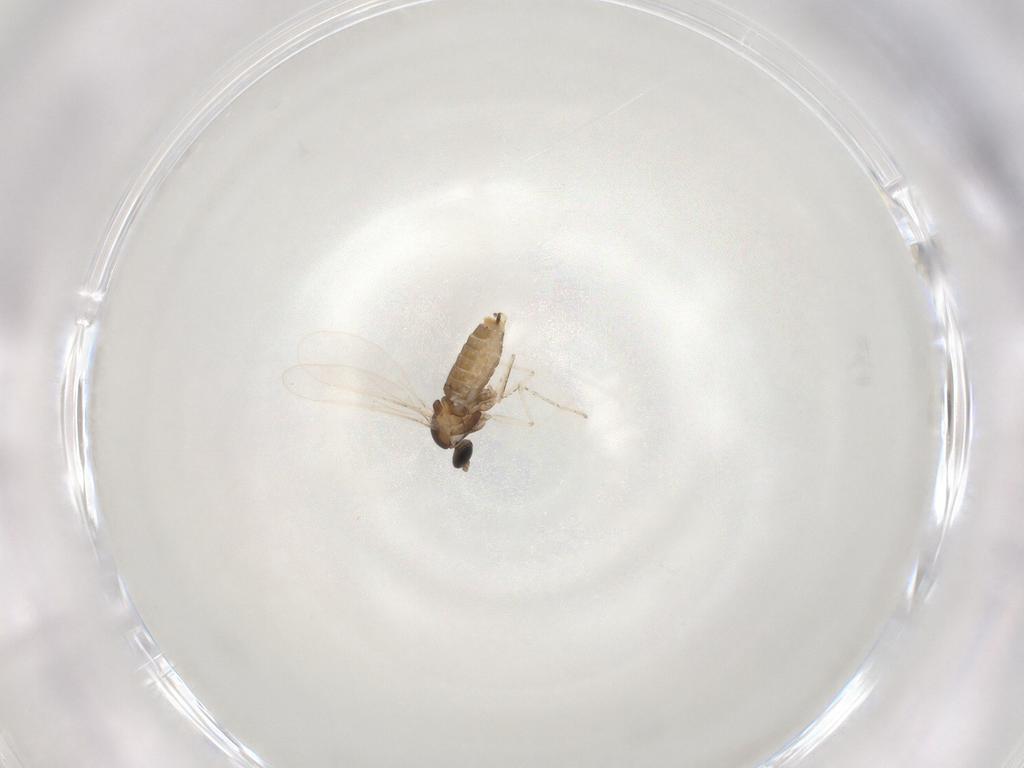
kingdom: Animalia
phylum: Arthropoda
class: Insecta
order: Diptera
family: Cecidomyiidae
